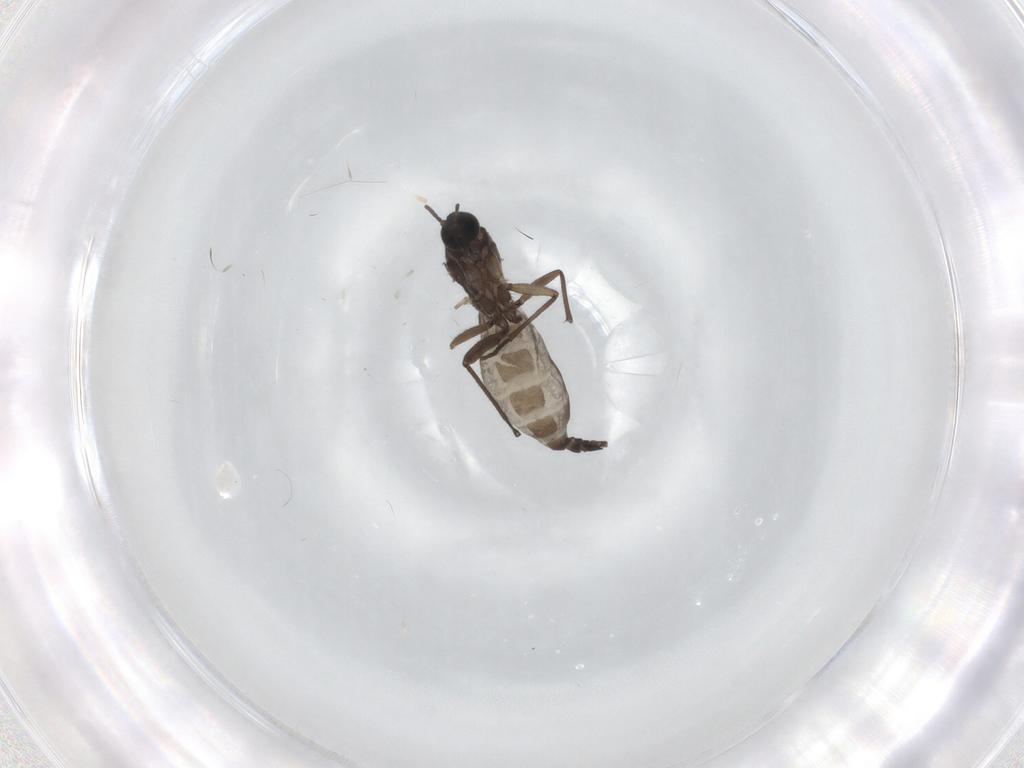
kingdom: Animalia
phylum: Arthropoda
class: Insecta
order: Diptera
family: Sciaridae
